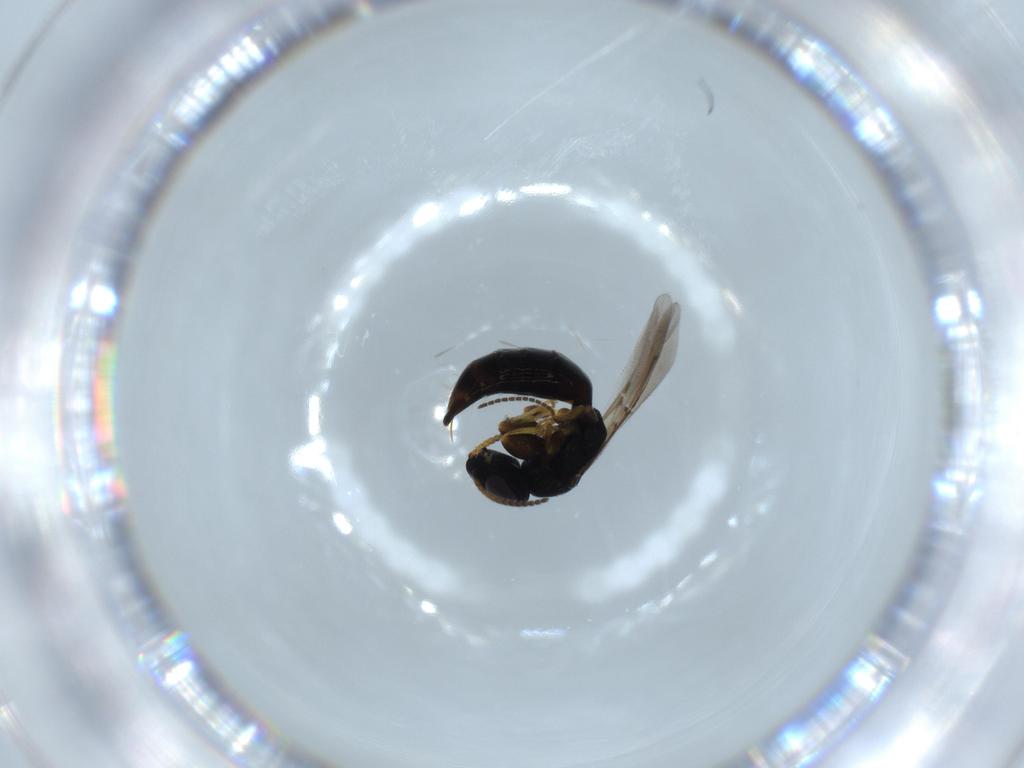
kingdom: Animalia
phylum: Arthropoda
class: Insecta
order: Hymenoptera
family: Bethylidae
